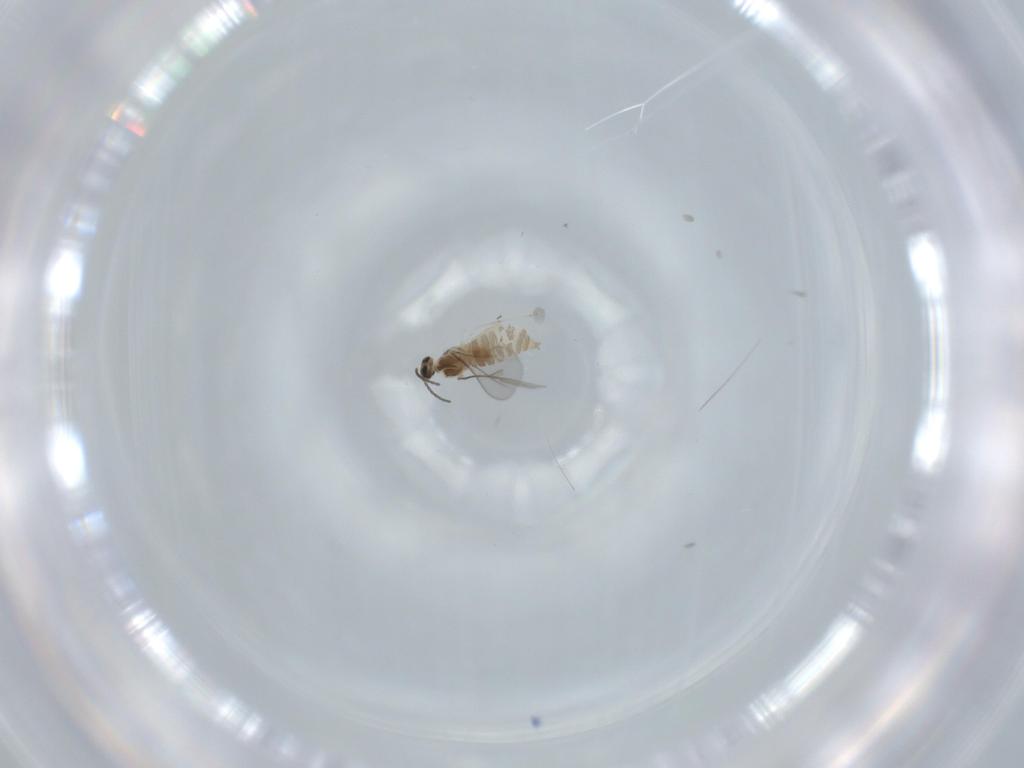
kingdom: Animalia
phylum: Arthropoda
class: Insecta
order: Diptera
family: Cecidomyiidae
